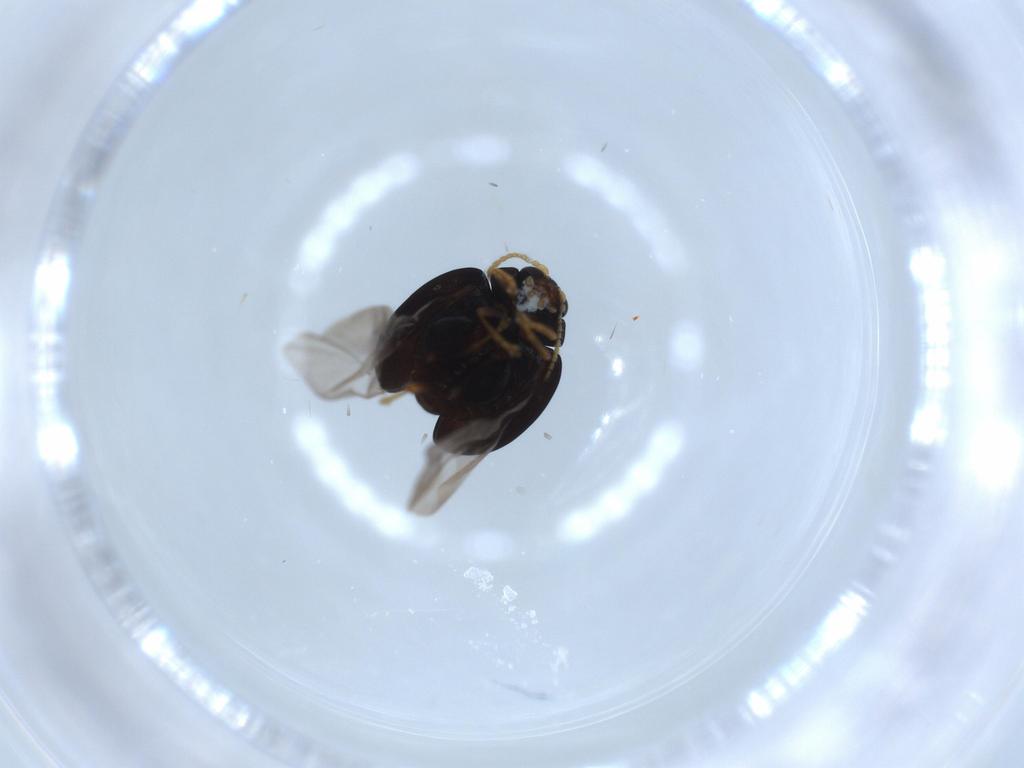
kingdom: Animalia
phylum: Arthropoda
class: Insecta
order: Coleoptera
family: Chrysomelidae
